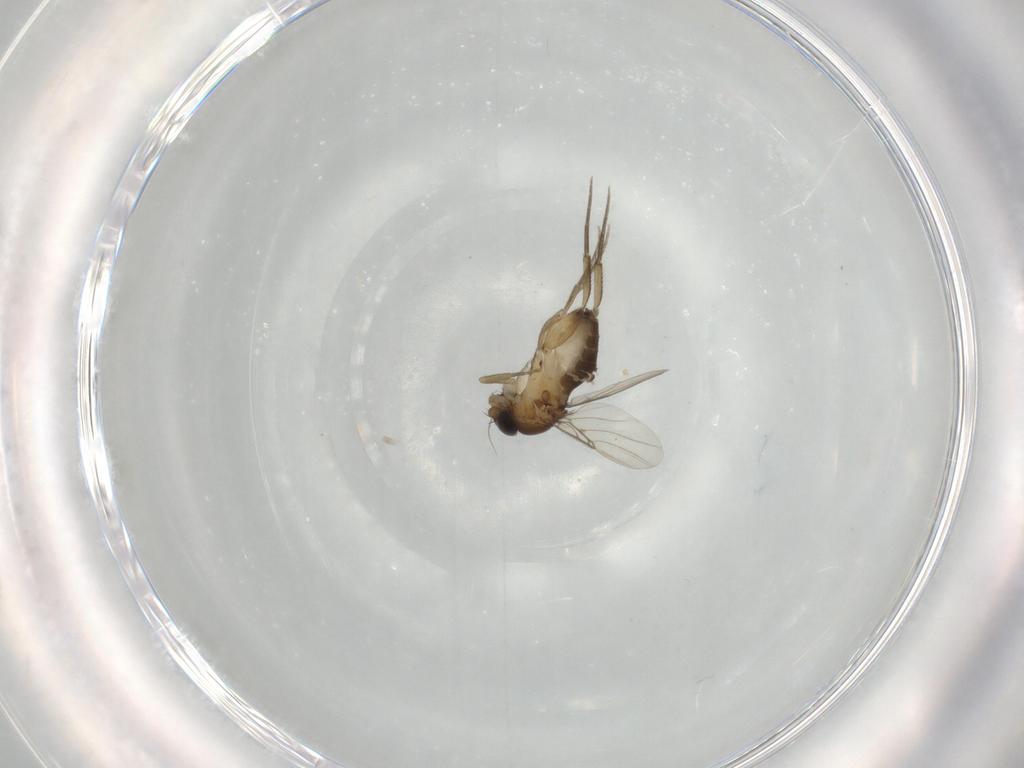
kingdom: Animalia
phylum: Arthropoda
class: Insecta
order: Diptera
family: Phoridae
